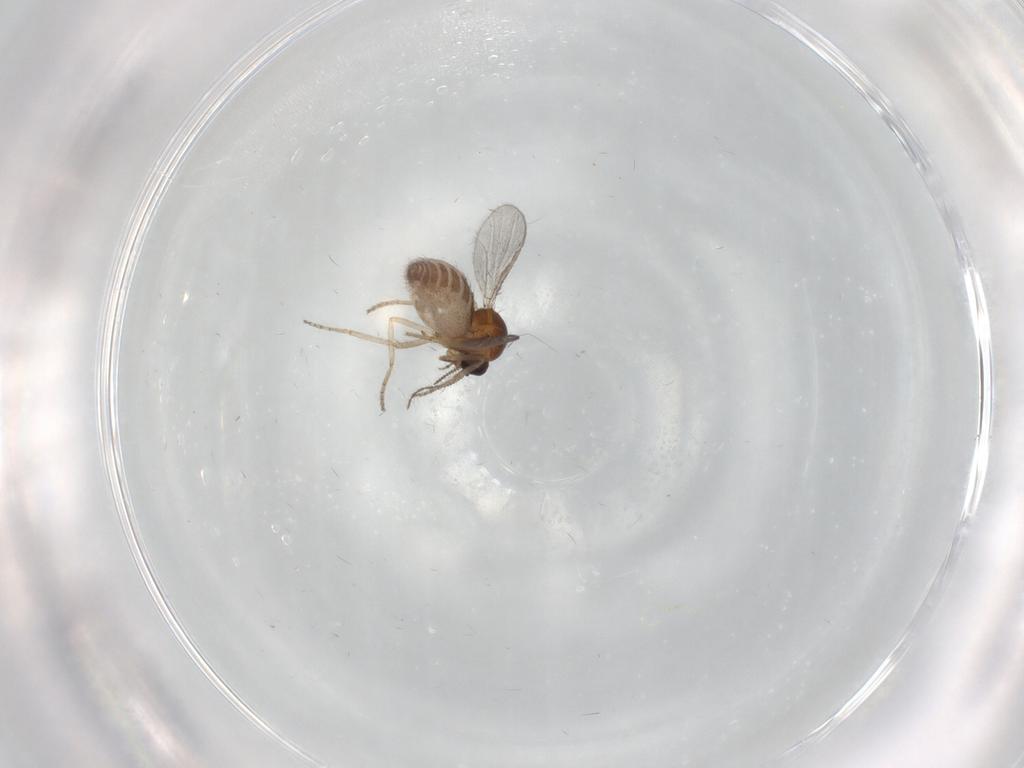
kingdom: Animalia
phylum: Arthropoda
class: Insecta
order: Diptera
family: Ceratopogonidae
